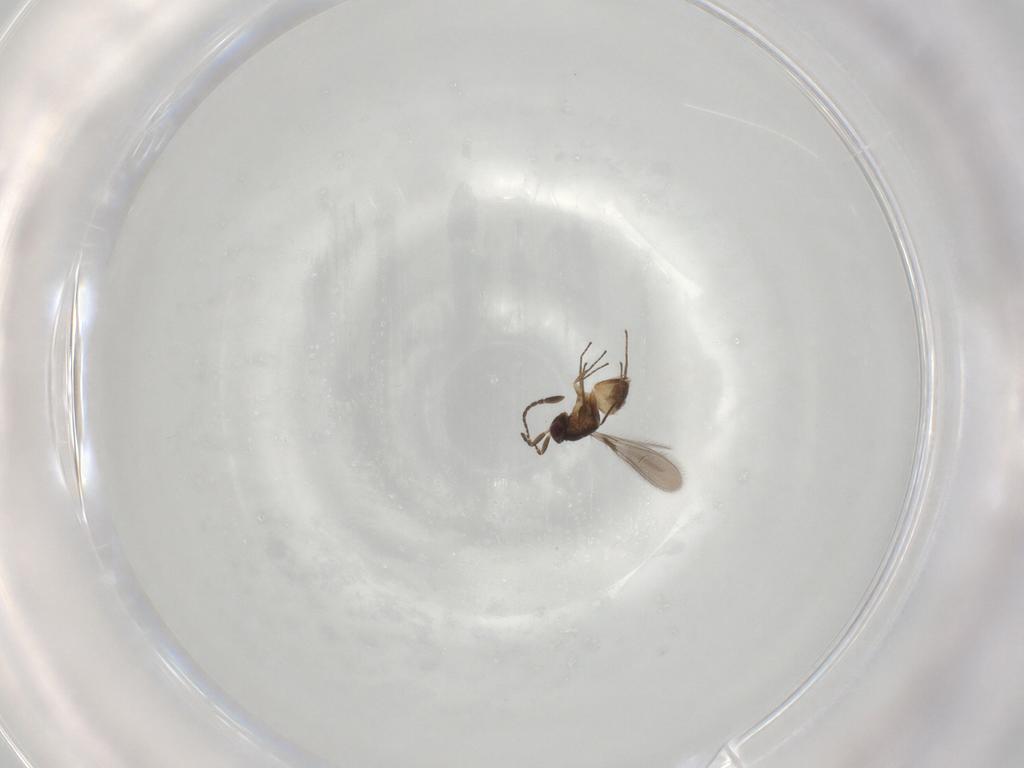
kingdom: Animalia
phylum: Arthropoda
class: Insecta
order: Hymenoptera
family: Mymaridae
